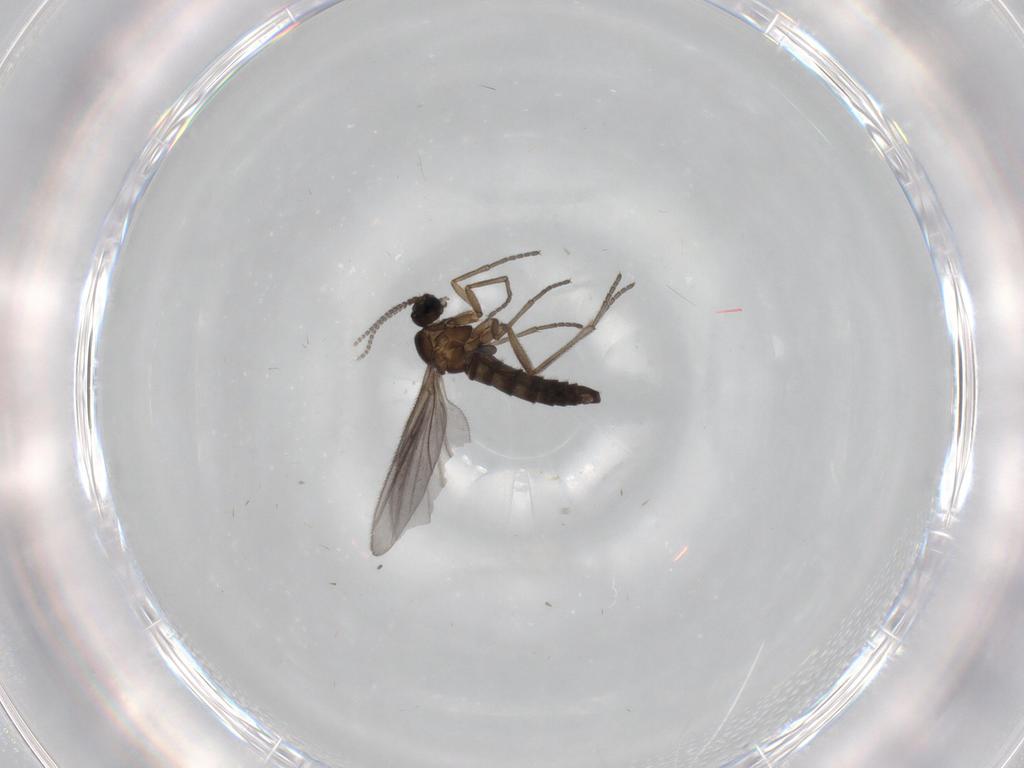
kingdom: Animalia
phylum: Arthropoda
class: Insecta
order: Diptera
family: Sciaridae
